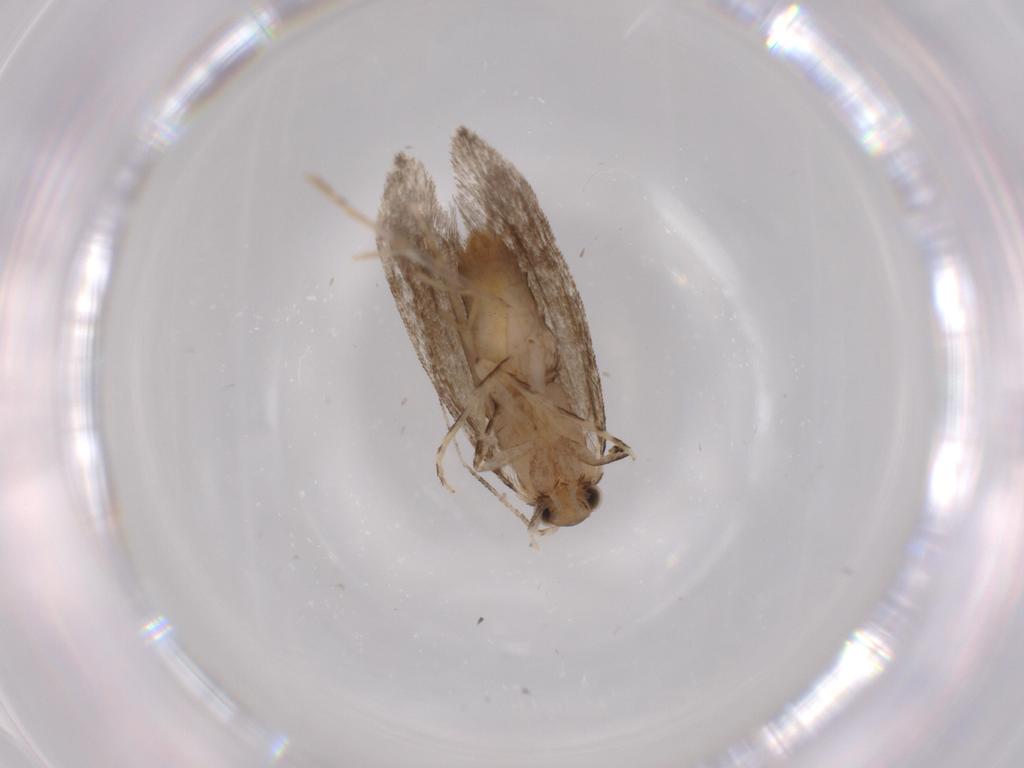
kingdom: Animalia
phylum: Arthropoda
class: Insecta
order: Lepidoptera
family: Tineidae
